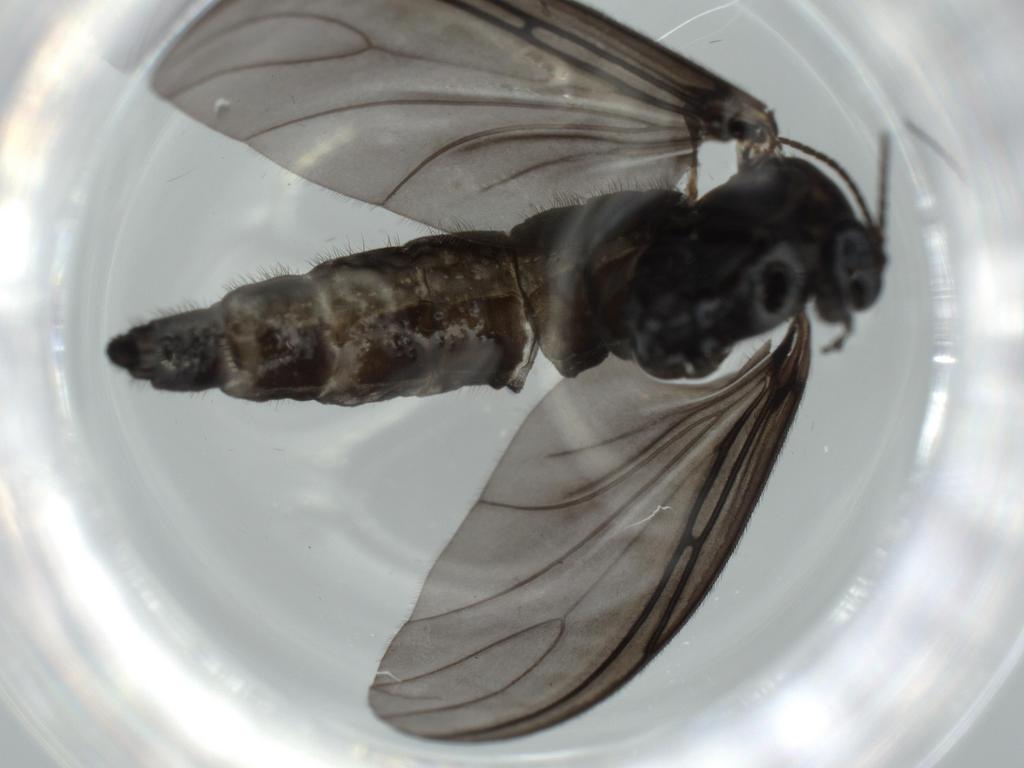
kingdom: Animalia
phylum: Arthropoda
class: Insecta
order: Diptera
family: Sciaridae
